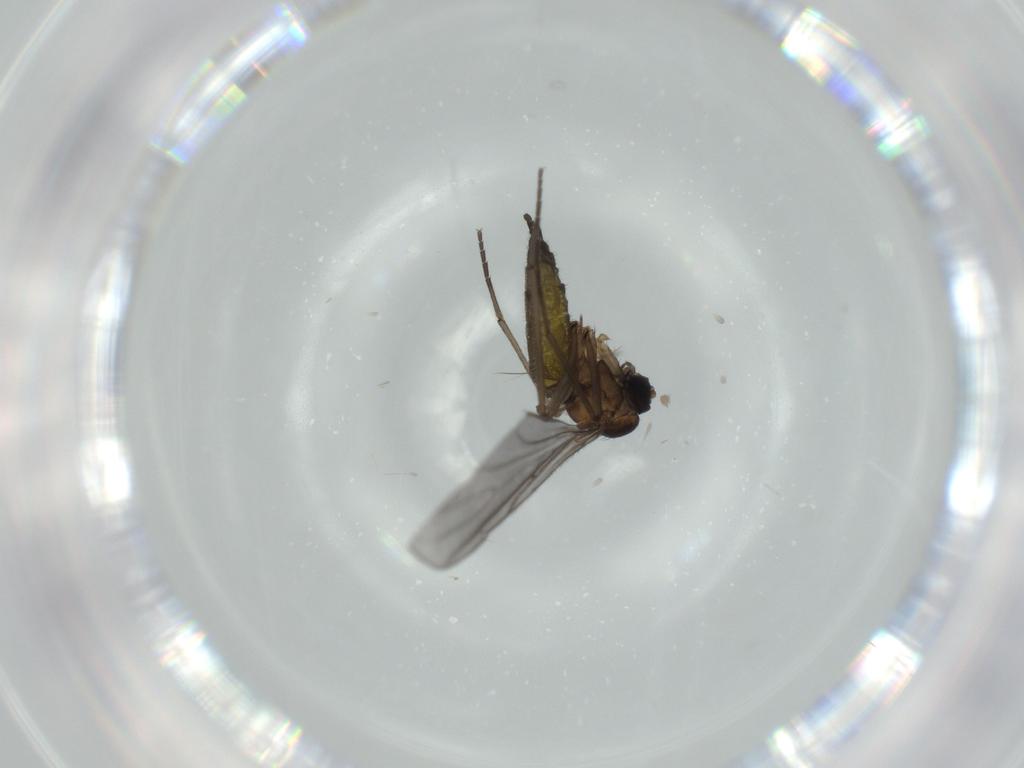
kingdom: Animalia
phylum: Arthropoda
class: Insecta
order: Diptera
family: Sciaridae
